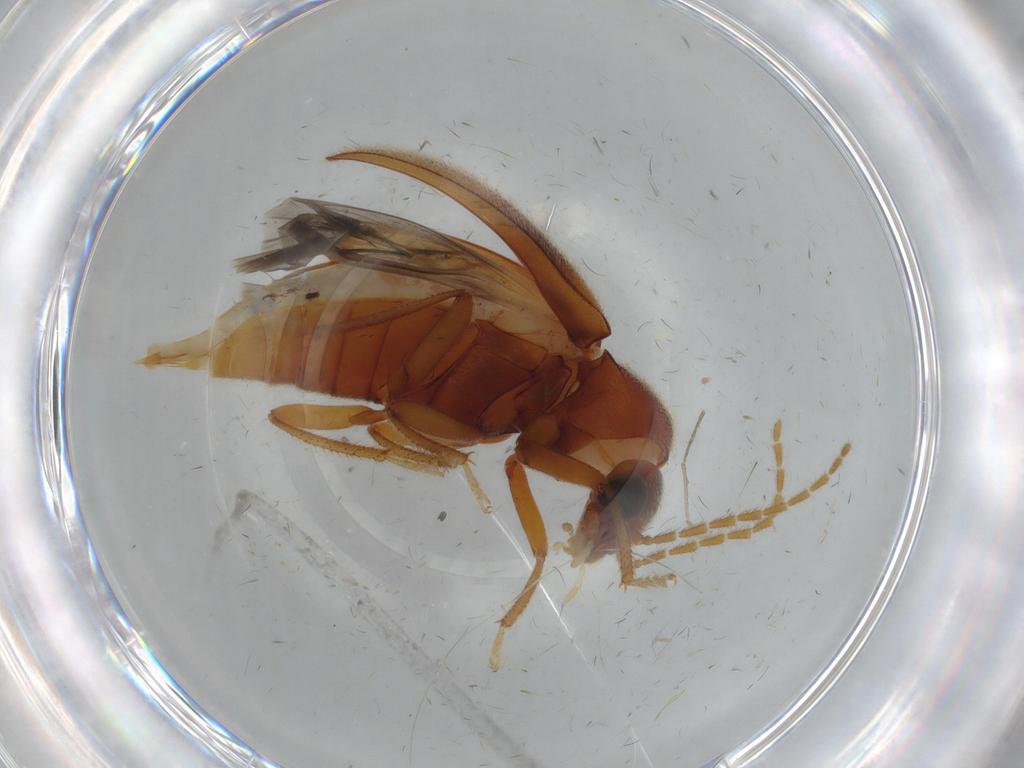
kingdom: Animalia
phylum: Arthropoda
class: Insecta
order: Coleoptera
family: Ptilodactylidae
